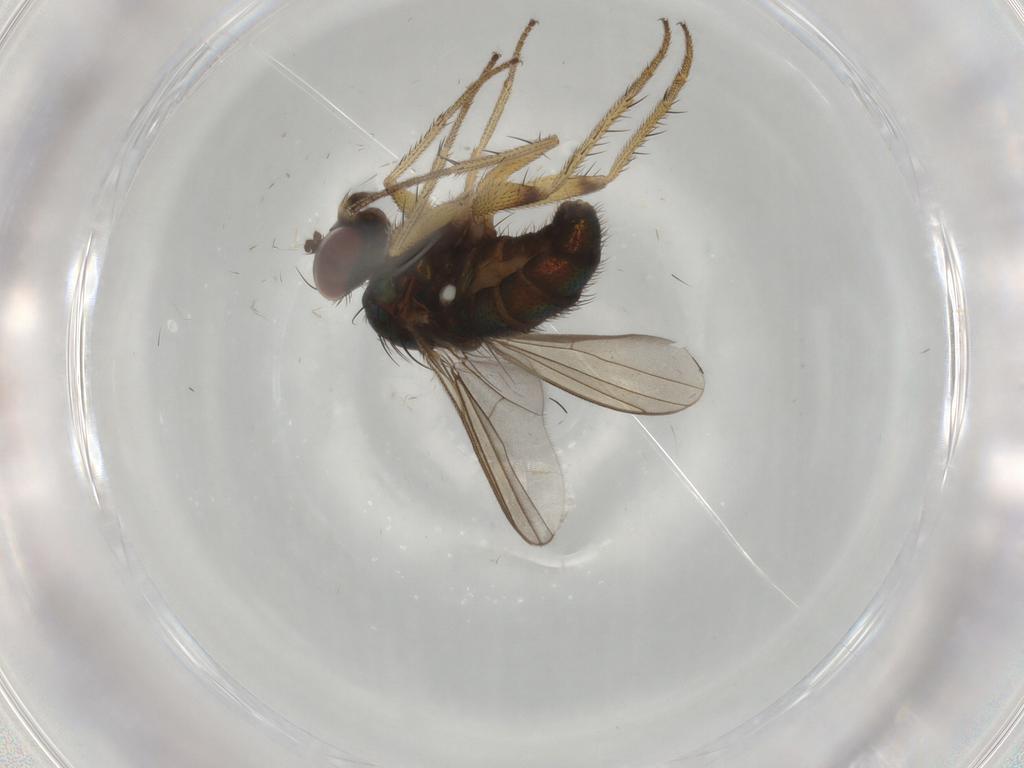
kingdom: Animalia
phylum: Arthropoda
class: Insecta
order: Diptera
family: Dolichopodidae
